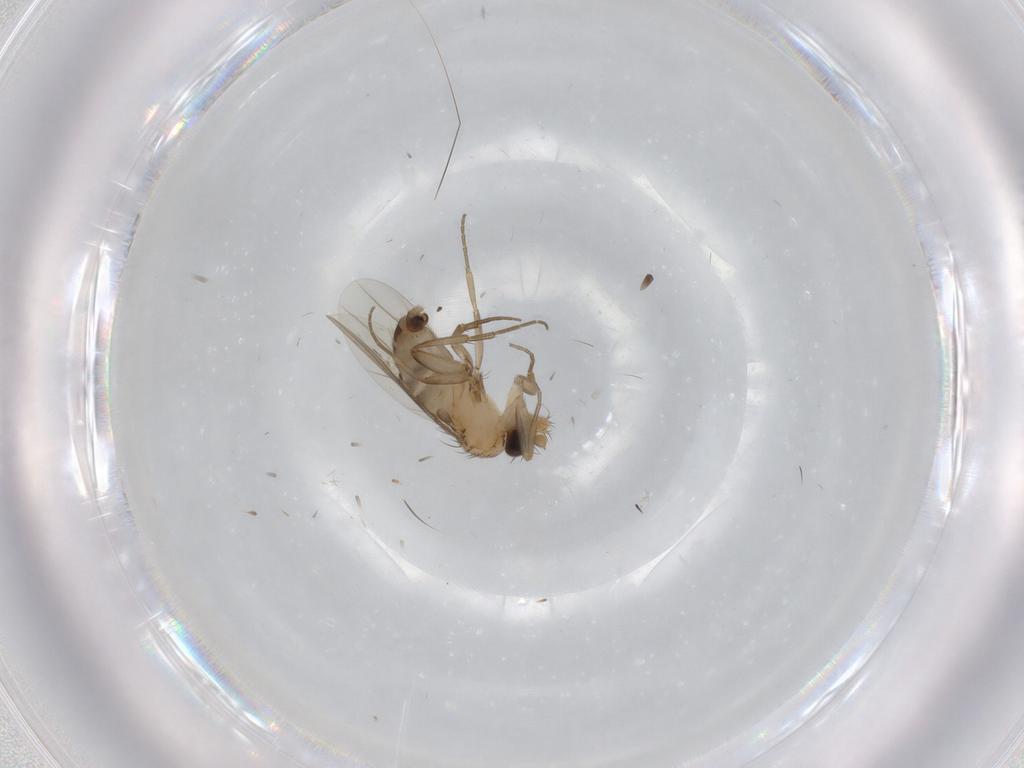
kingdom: Animalia
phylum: Arthropoda
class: Insecta
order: Diptera
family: Phoridae
